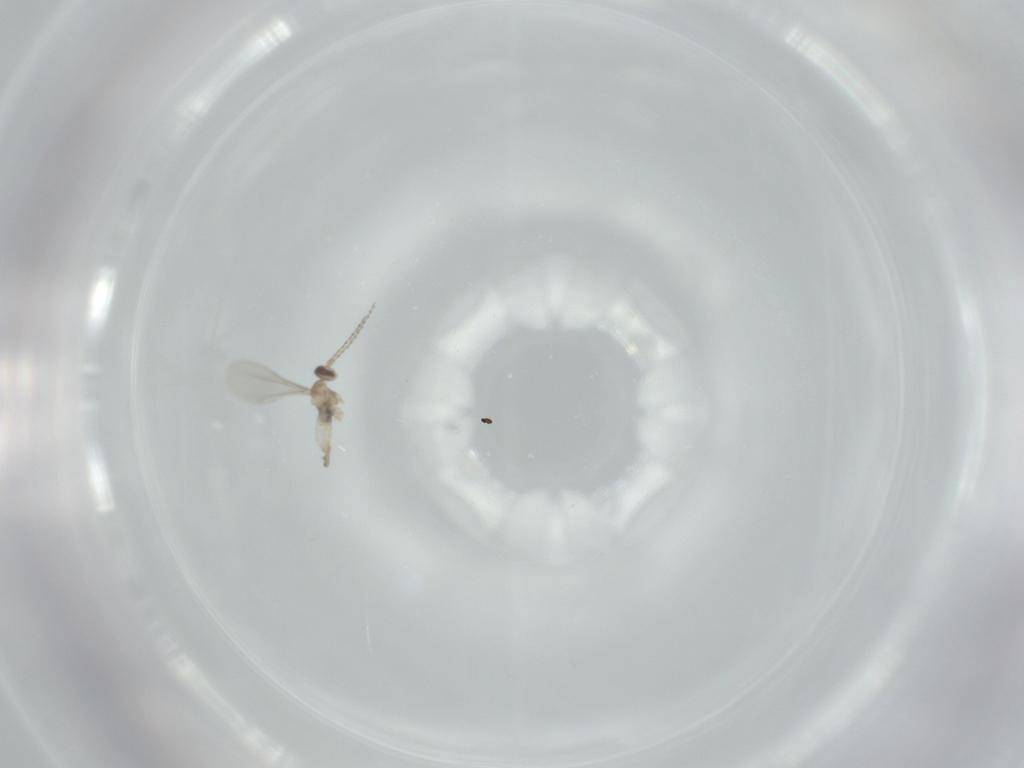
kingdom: Animalia
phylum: Arthropoda
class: Insecta
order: Diptera
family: Cecidomyiidae
